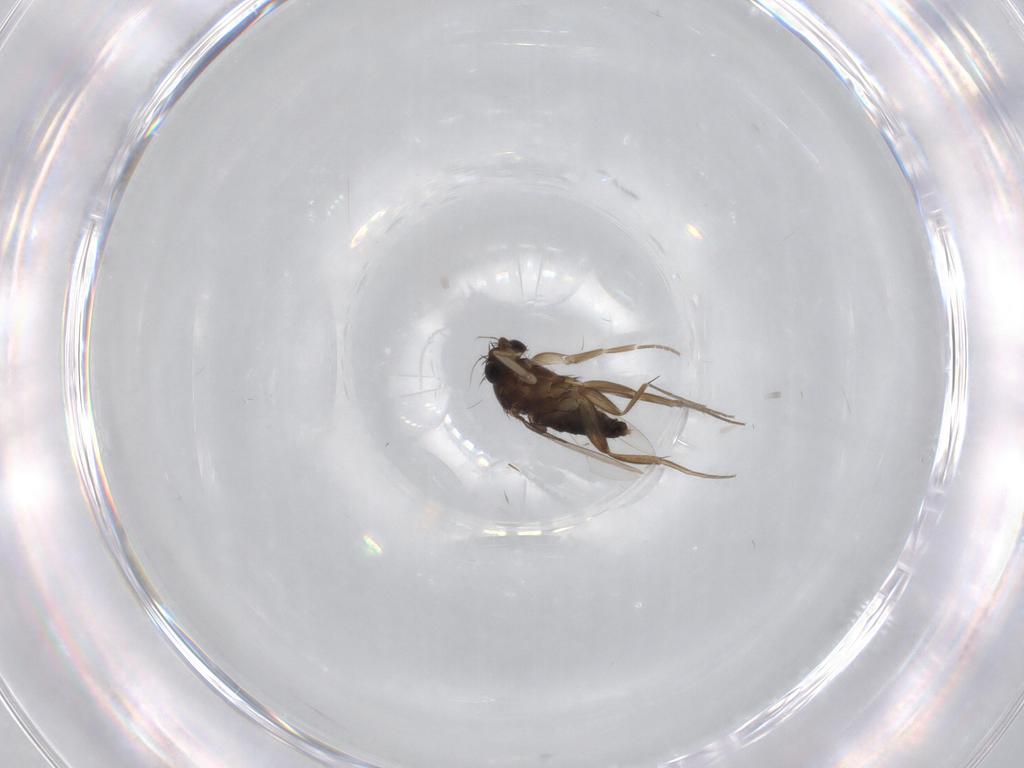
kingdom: Animalia
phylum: Arthropoda
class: Insecta
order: Diptera
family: Phoridae
